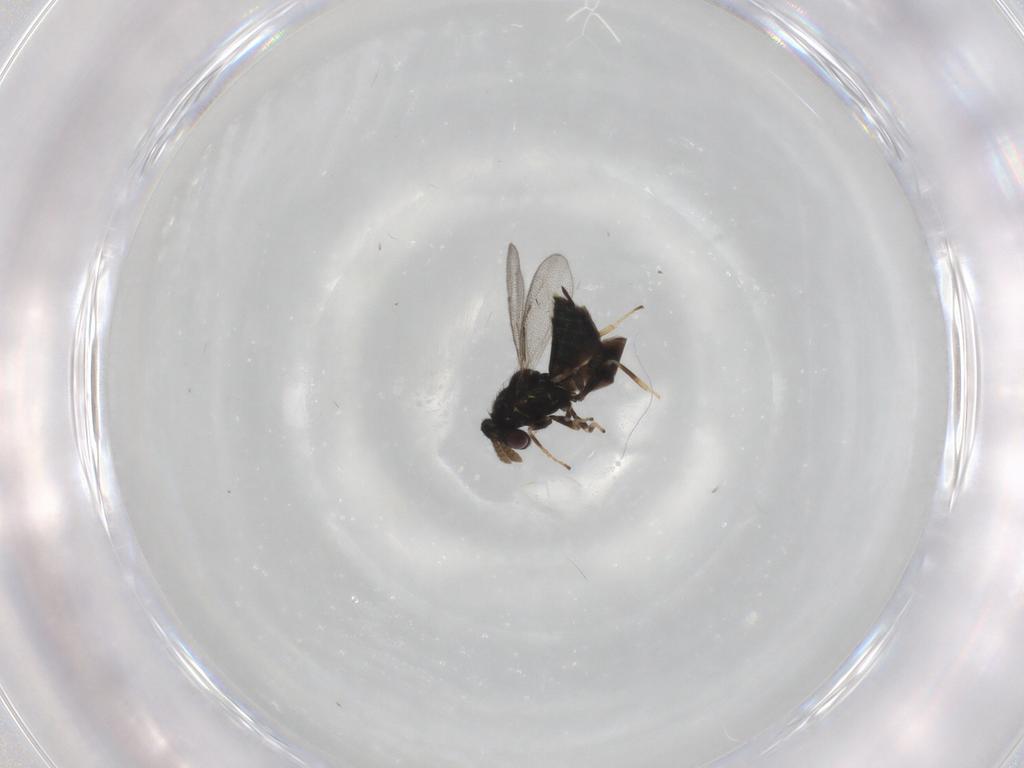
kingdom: Animalia
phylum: Arthropoda
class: Insecta
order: Hymenoptera
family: Eulophidae
